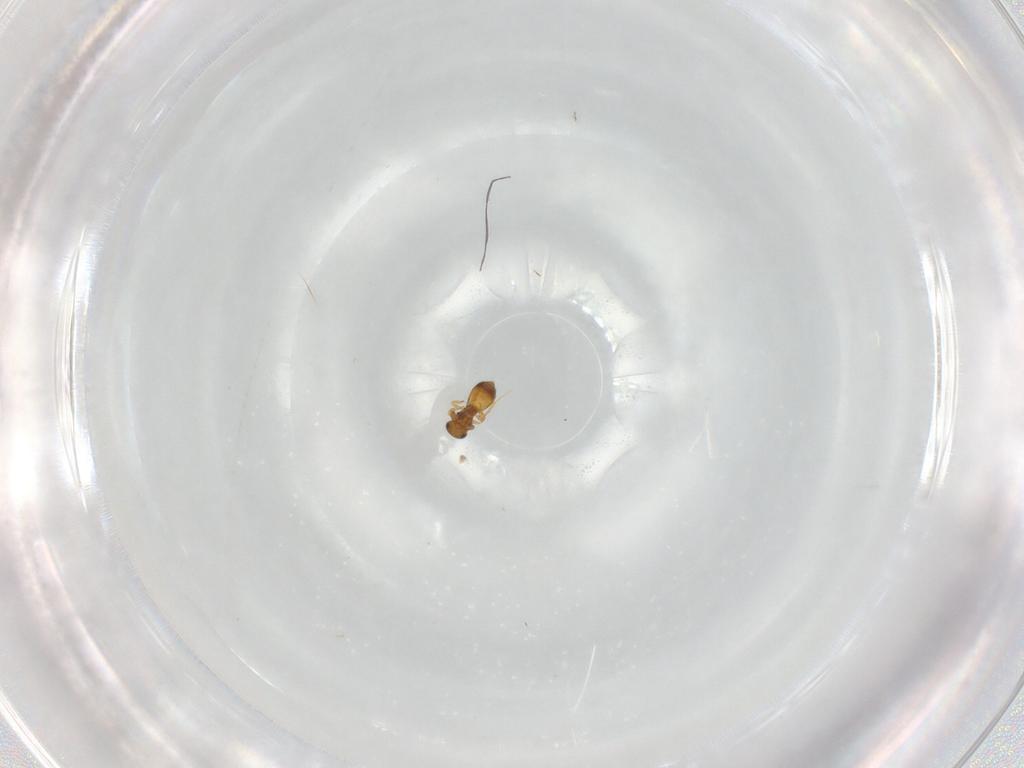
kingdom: Animalia
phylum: Arthropoda
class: Insecta
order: Hymenoptera
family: Platygastridae
